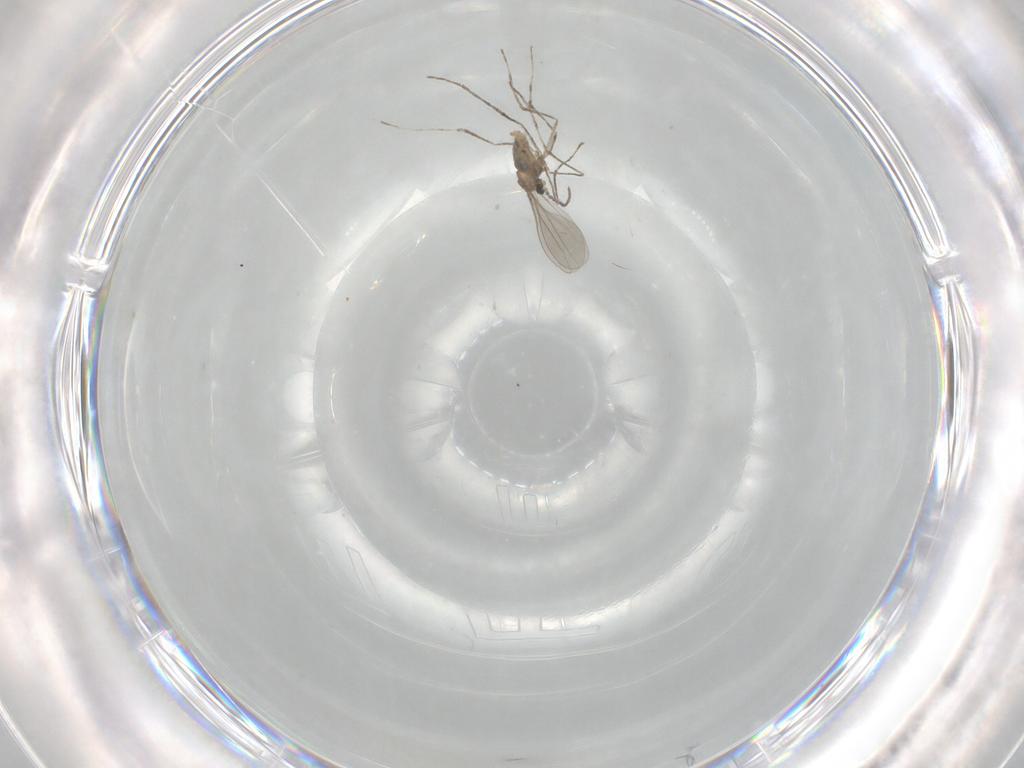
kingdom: Animalia
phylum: Arthropoda
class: Insecta
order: Diptera
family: Cecidomyiidae
